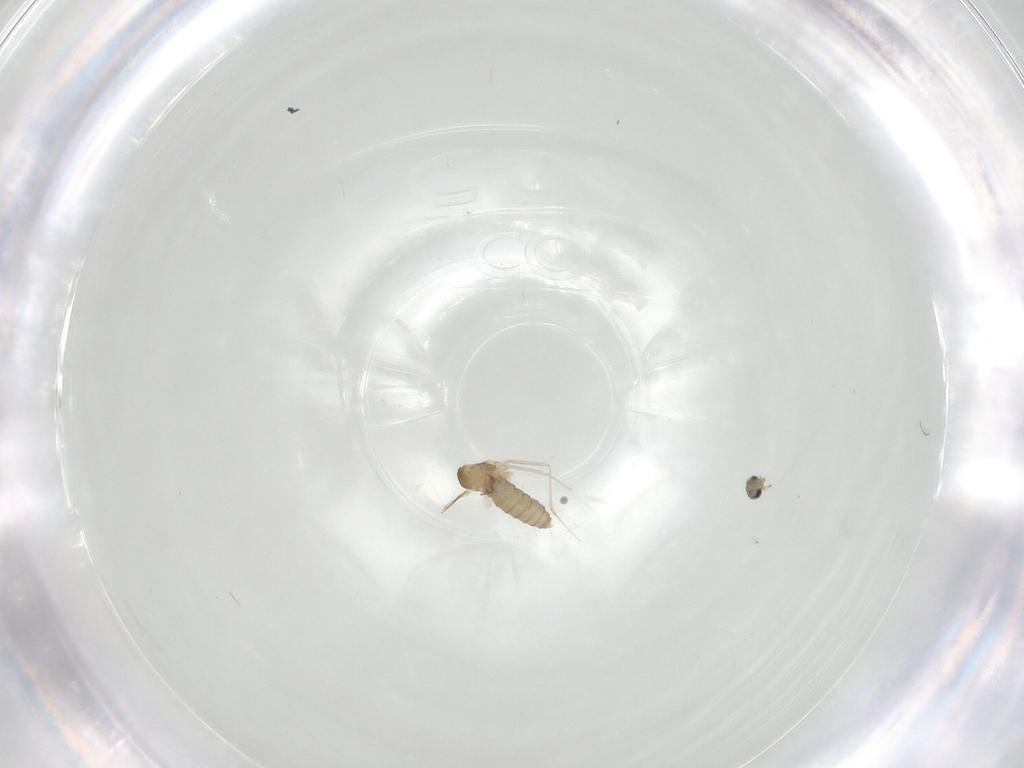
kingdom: Animalia
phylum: Arthropoda
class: Insecta
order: Diptera
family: Cecidomyiidae
